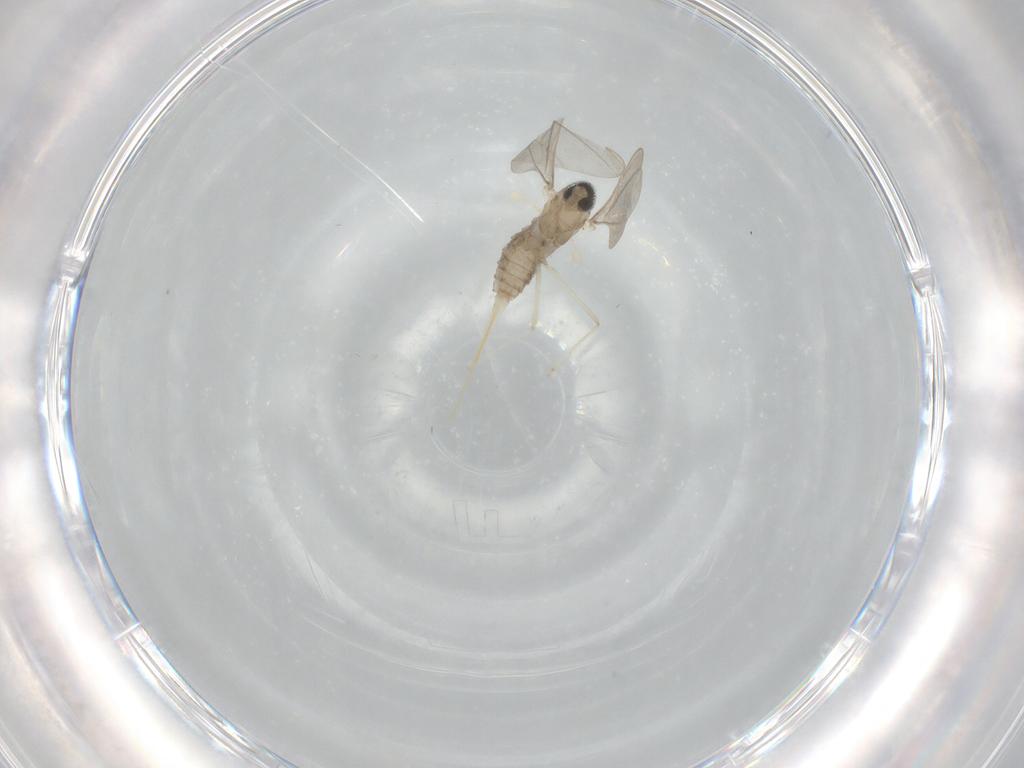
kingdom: Animalia
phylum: Arthropoda
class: Insecta
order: Diptera
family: Cecidomyiidae
